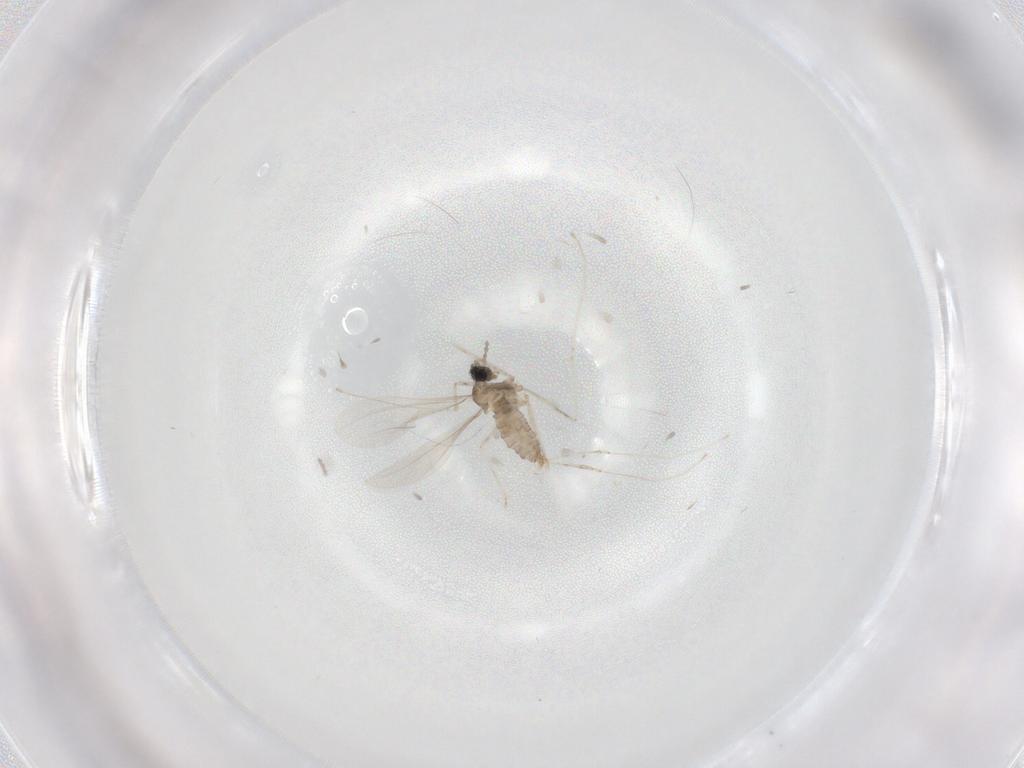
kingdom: Animalia
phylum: Arthropoda
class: Insecta
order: Diptera
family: Cecidomyiidae
